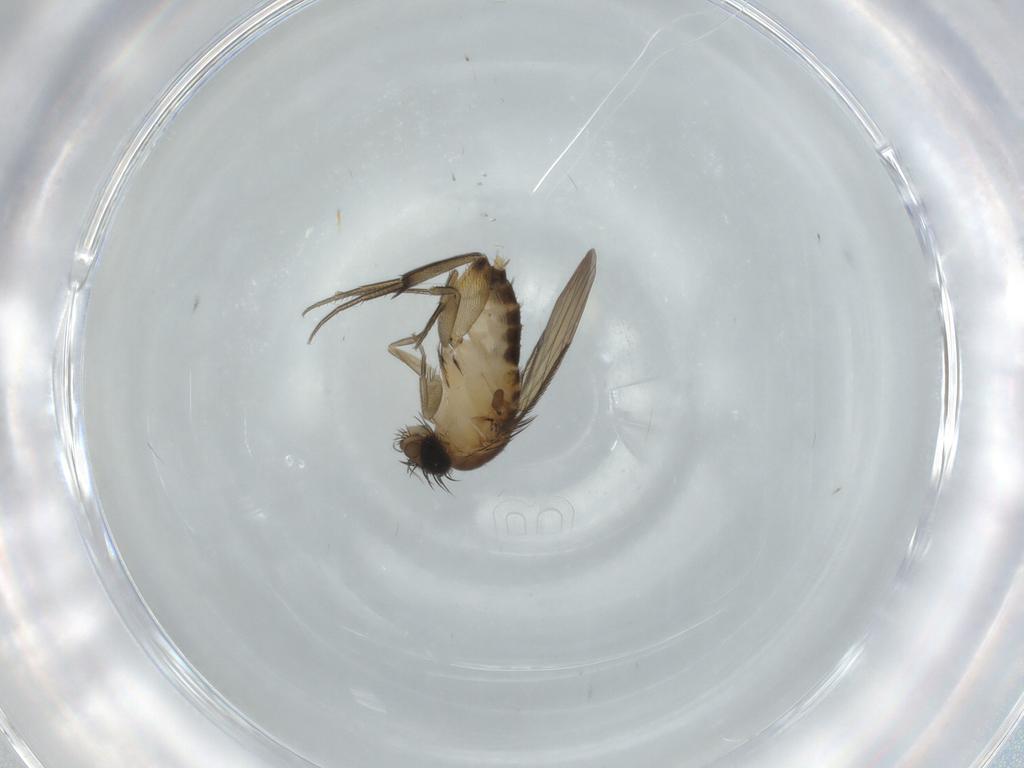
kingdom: Animalia
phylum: Arthropoda
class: Insecta
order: Diptera
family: Phoridae
